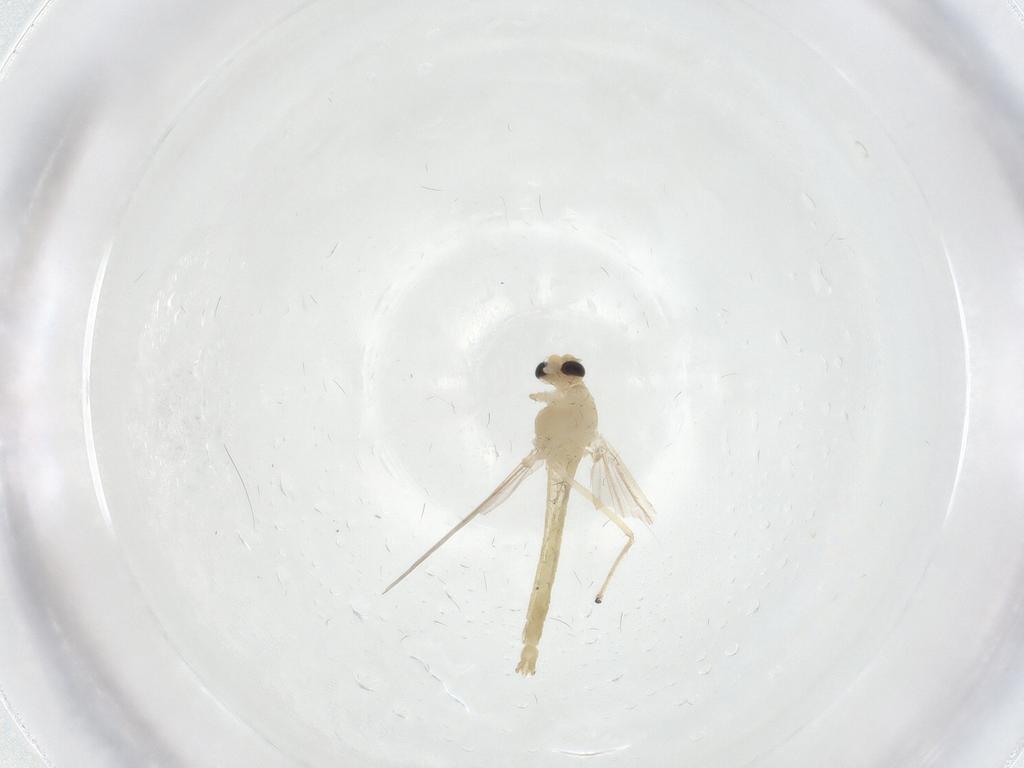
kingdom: Animalia
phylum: Arthropoda
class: Insecta
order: Diptera
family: Chironomidae
